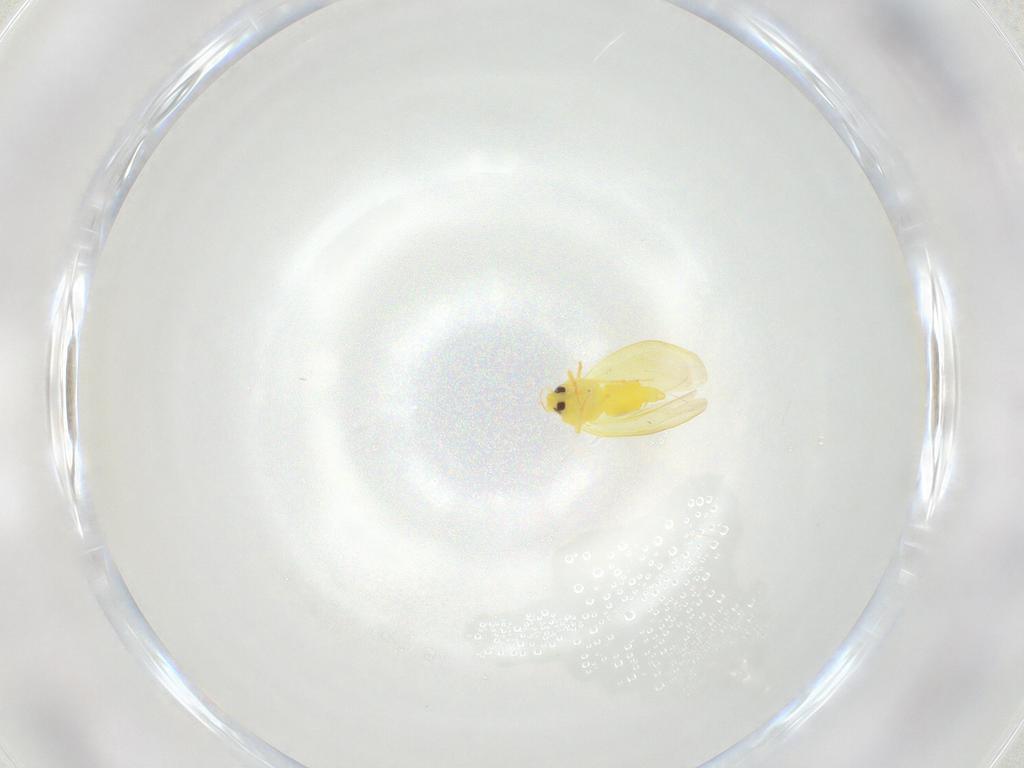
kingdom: Animalia
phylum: Arthropoda
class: Insecta
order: Hemiptera
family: Aleyrodidae
